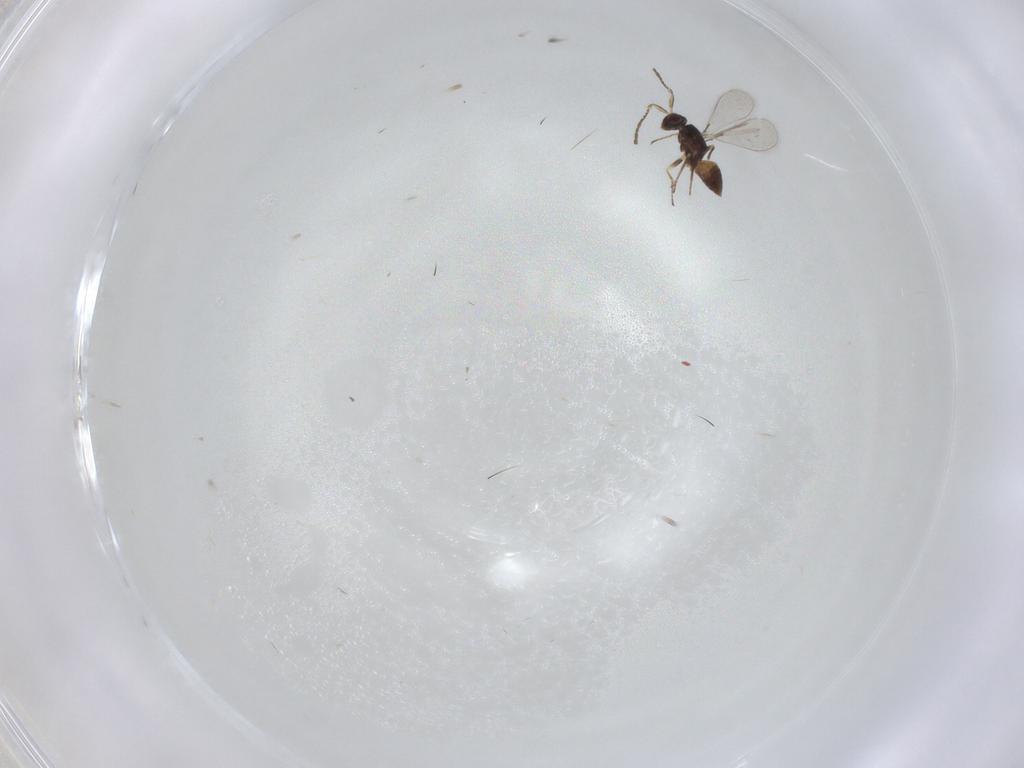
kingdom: Animalia
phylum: Arthropoda
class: Insecta
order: Hymenoptera
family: Mymaridae
